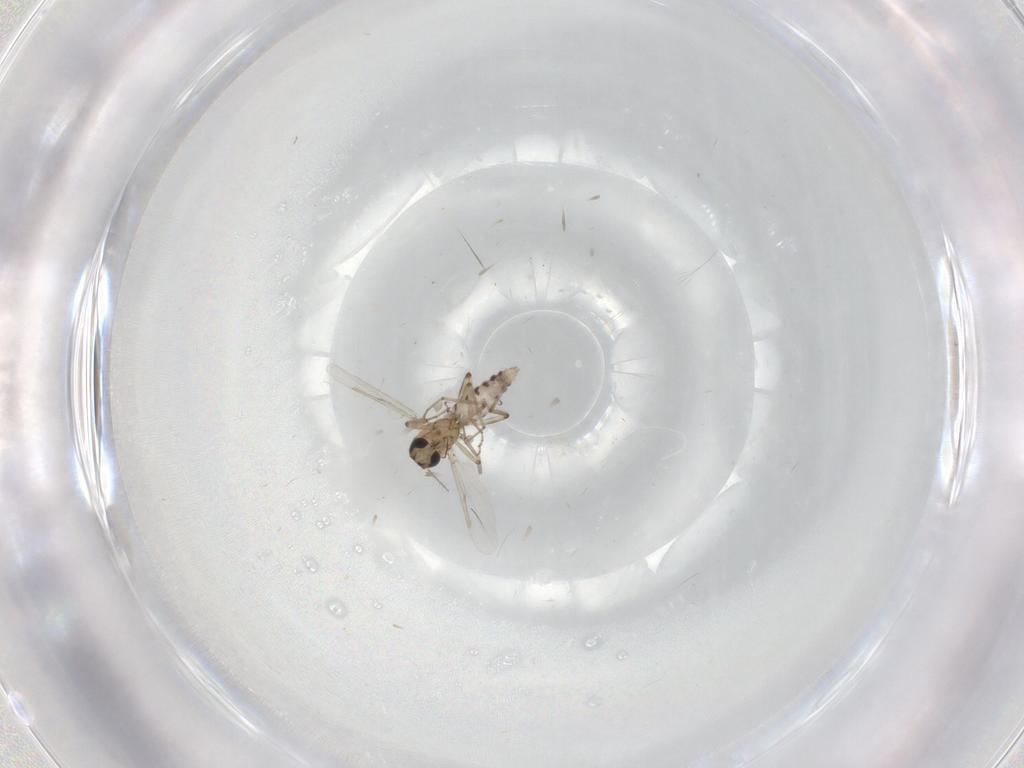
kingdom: Animalia
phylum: Arthropoda
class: Insecta
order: Diptera
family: Ceratopogonidae
